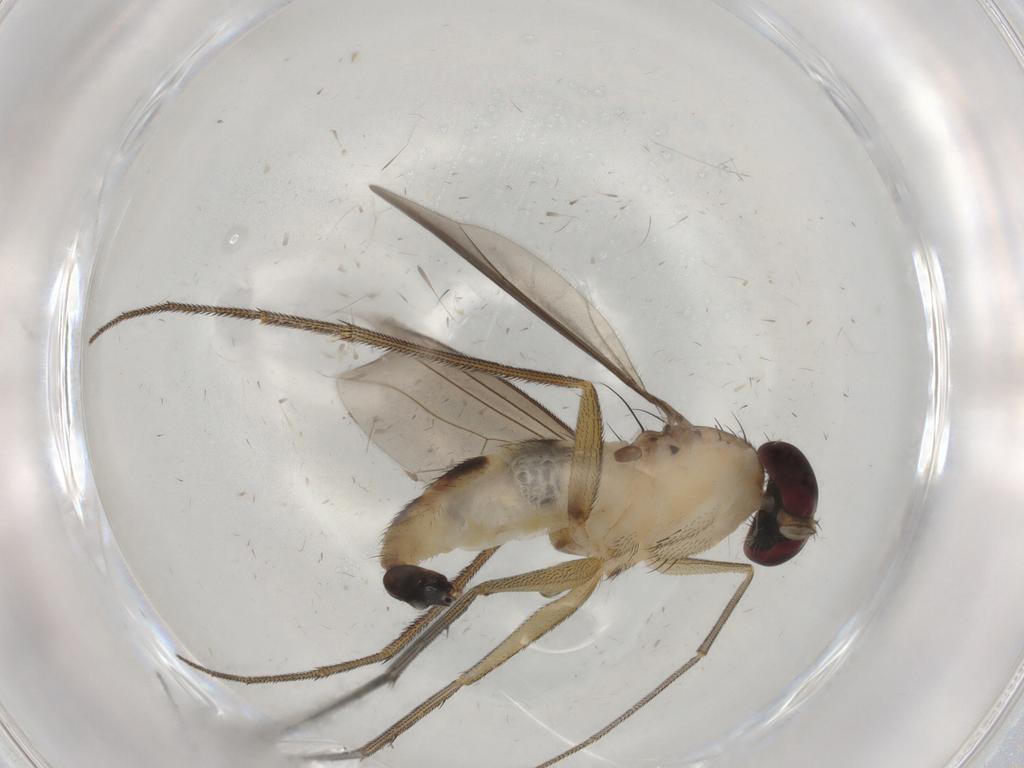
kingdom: Animalia
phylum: Arthropoda
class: Insecta
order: Diptera
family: Dolichopodidae
